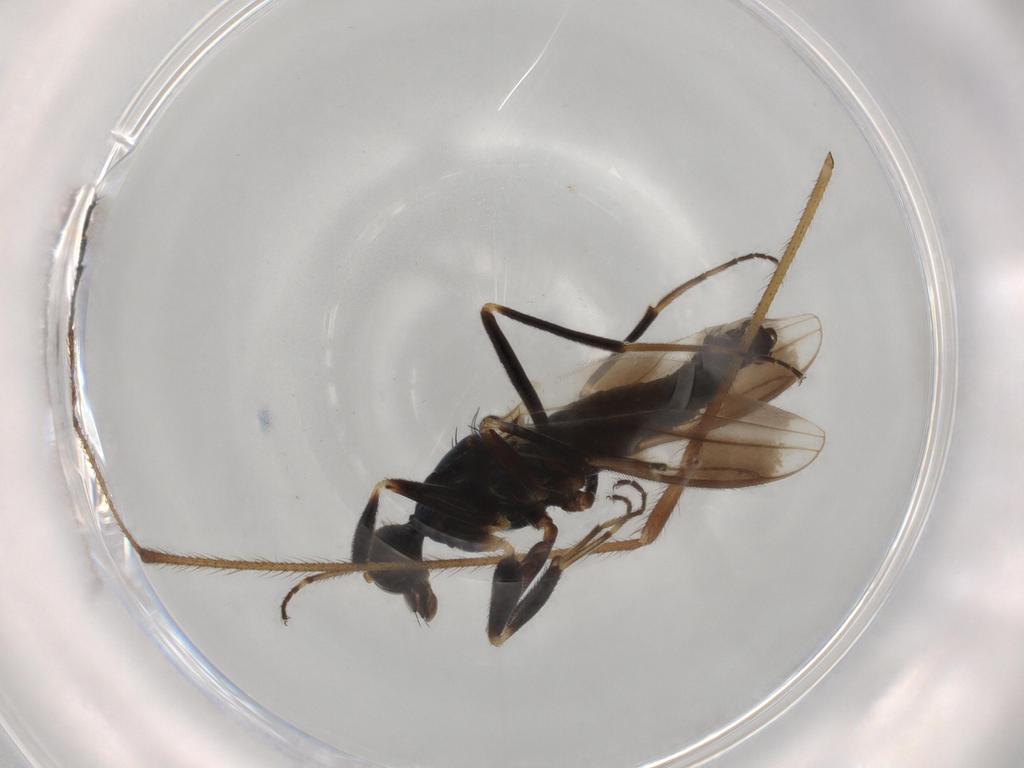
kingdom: Animalia
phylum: Arthropoda
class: Insecta
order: Diptera
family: Hybotidae
